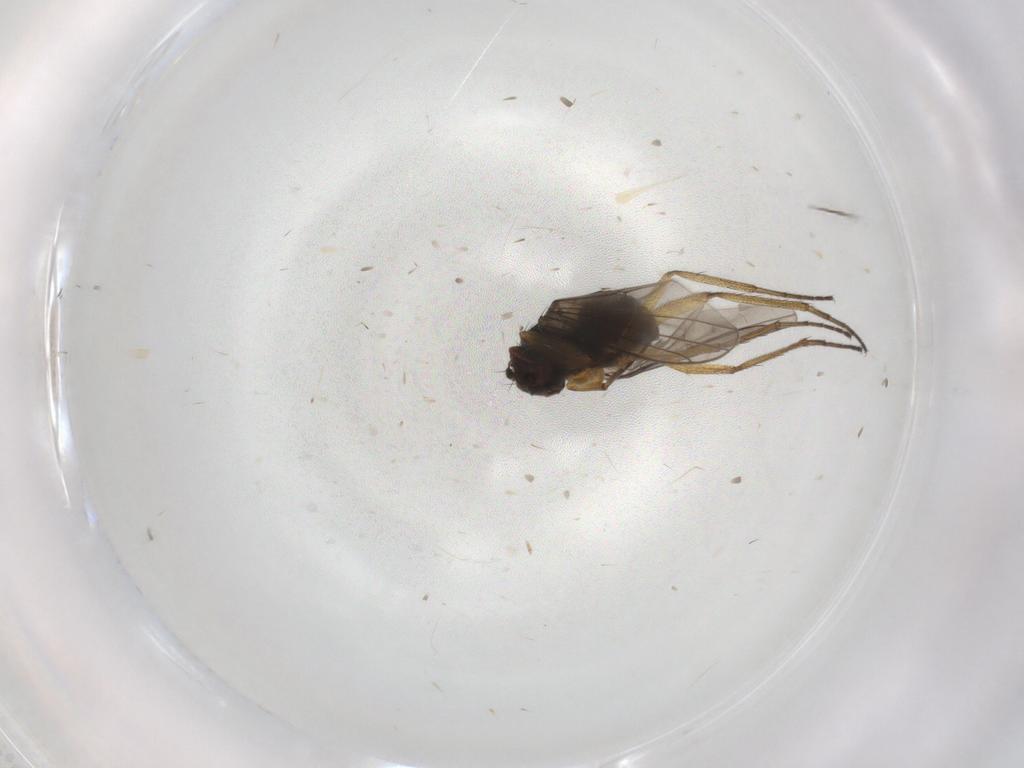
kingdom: Animalia
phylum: Arthropoda
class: Insecta
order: Diptera
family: Dolichopodidae
